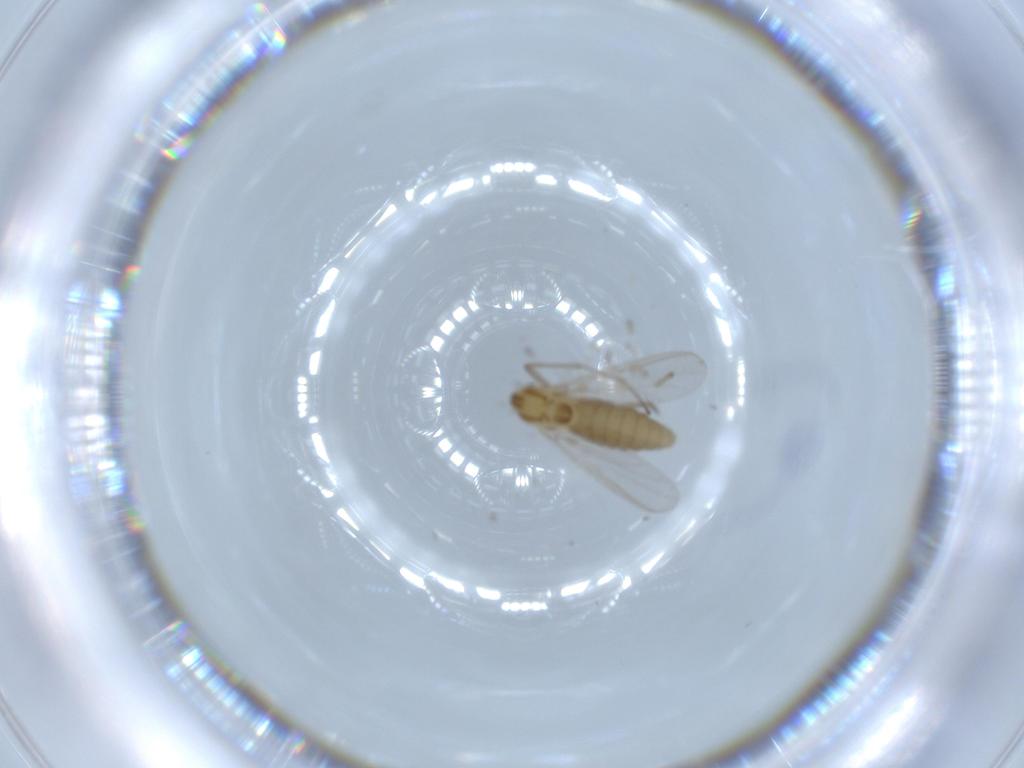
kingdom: Animalia
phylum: Arthropoda
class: Insecta
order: Diptera
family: Chironomidae
